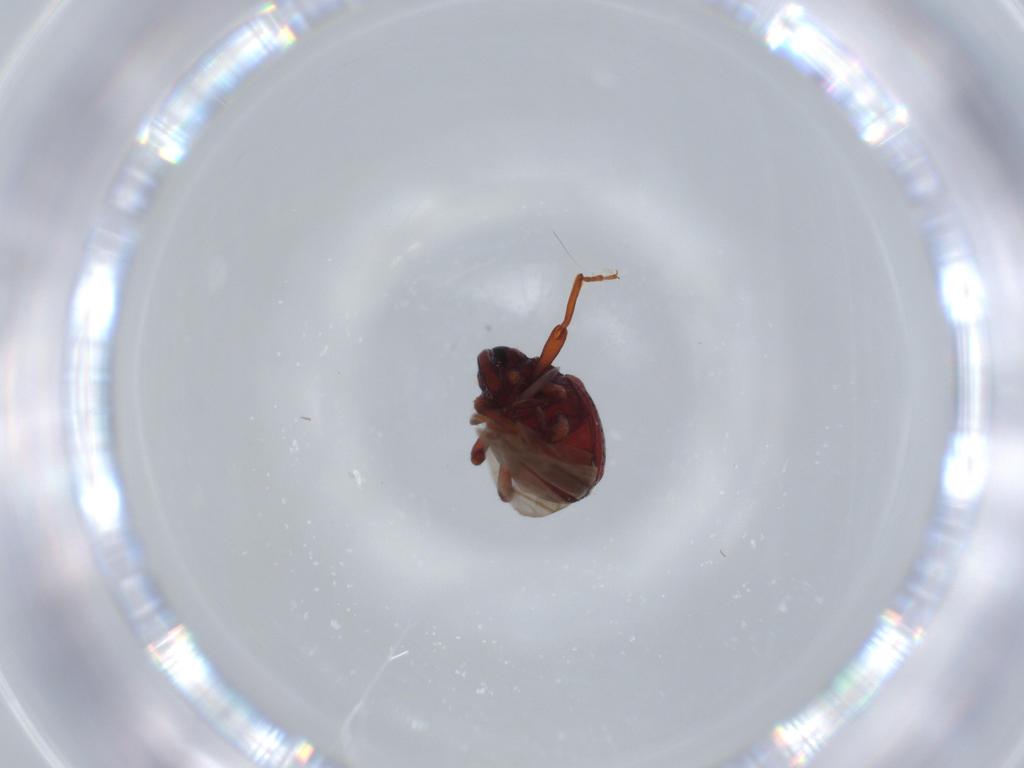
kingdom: Animalia
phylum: Arthropoda
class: Insecta
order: Coleoptera
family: Curculionidae
